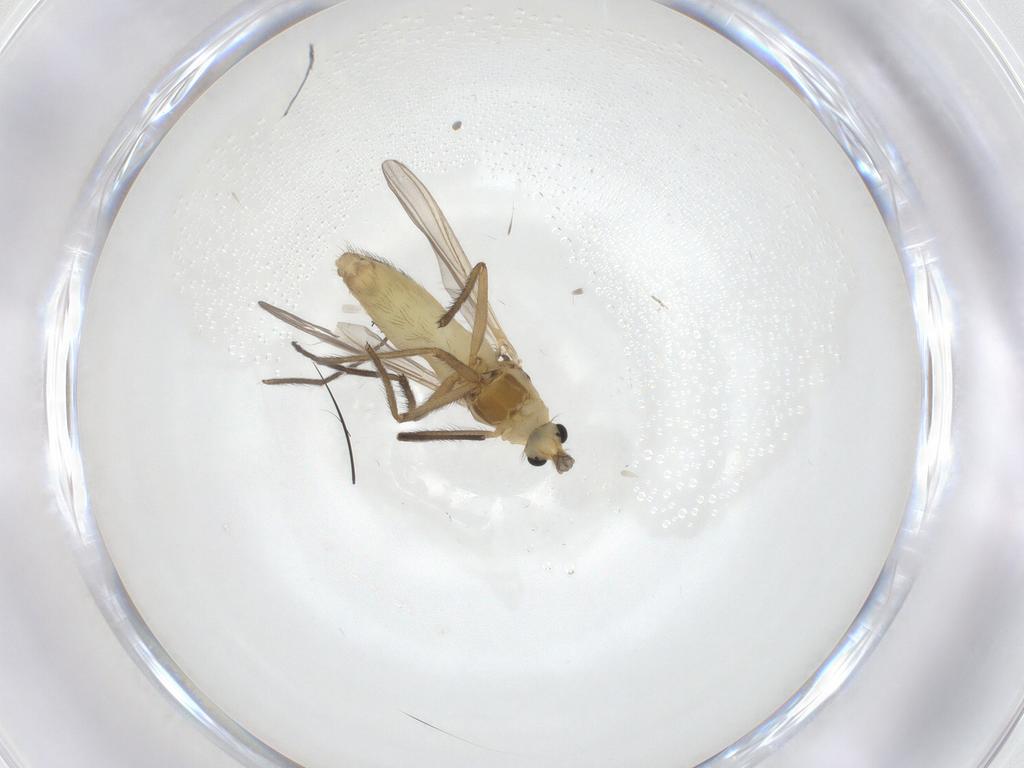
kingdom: Animalia
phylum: Arthropoda
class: Insecta
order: Diptera
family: Chironomidae
